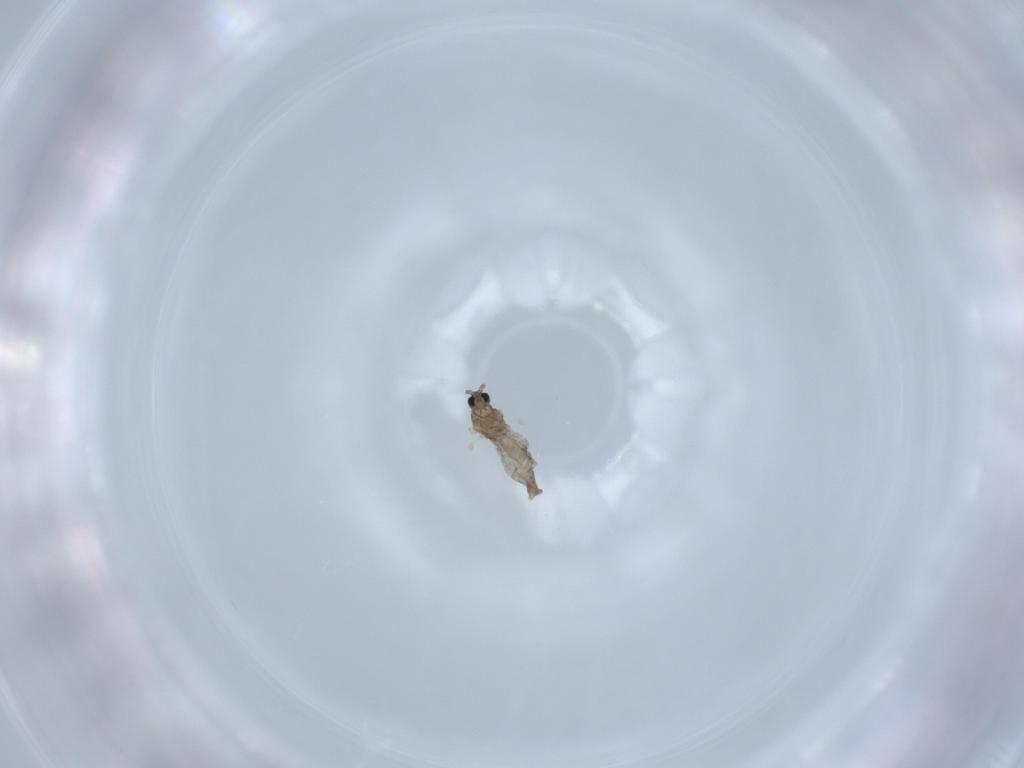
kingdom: Animalia
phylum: Arthropoda
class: Insecta
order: Diptera
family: Cecidomyiidae
